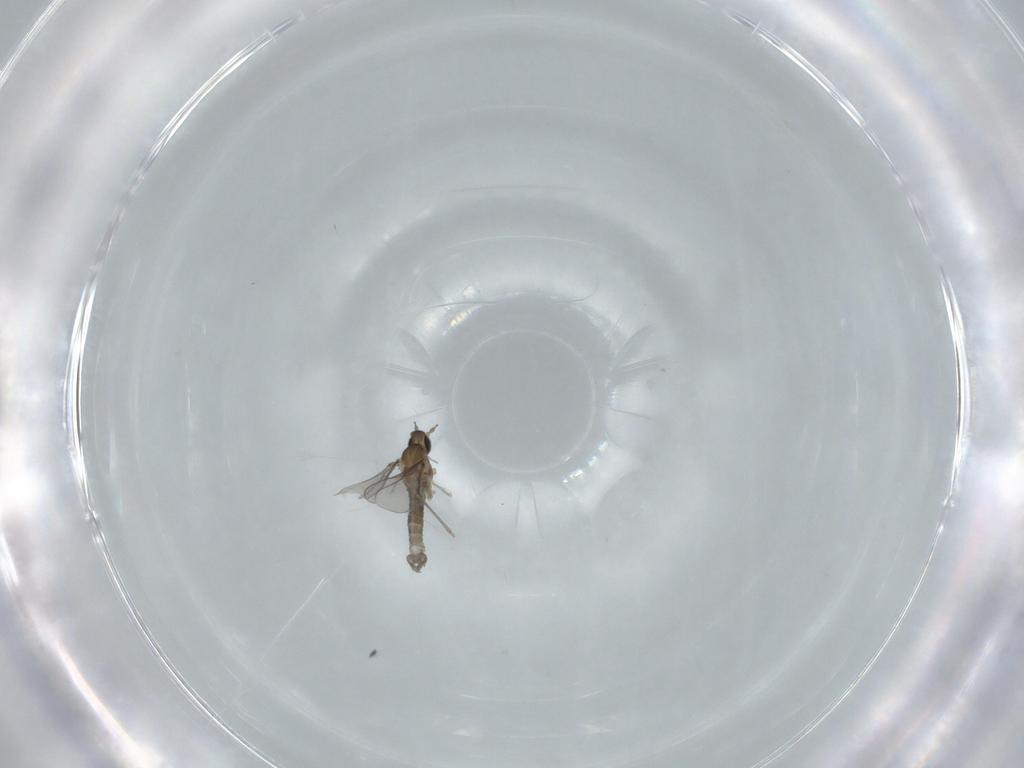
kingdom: Animalia
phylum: Arthropoda
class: Insecta
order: Diptera
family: Cecidomyiidae
